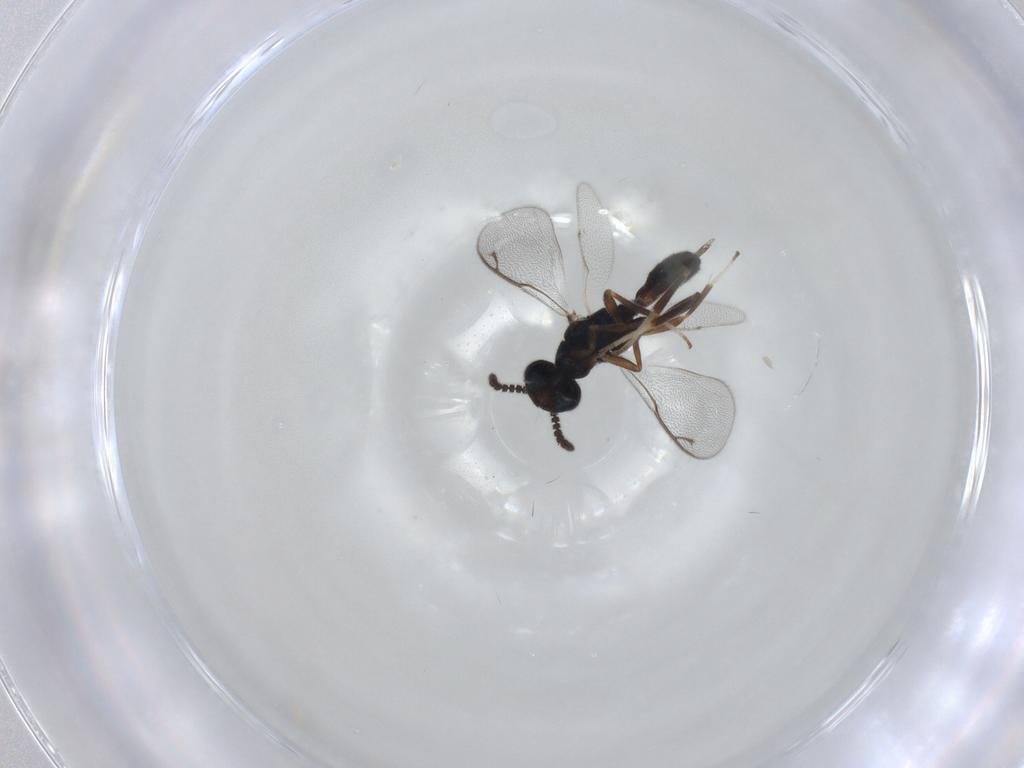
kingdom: Animalia
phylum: Arthropoda
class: Insecta
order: Hymenoptera
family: Cleonyminae
